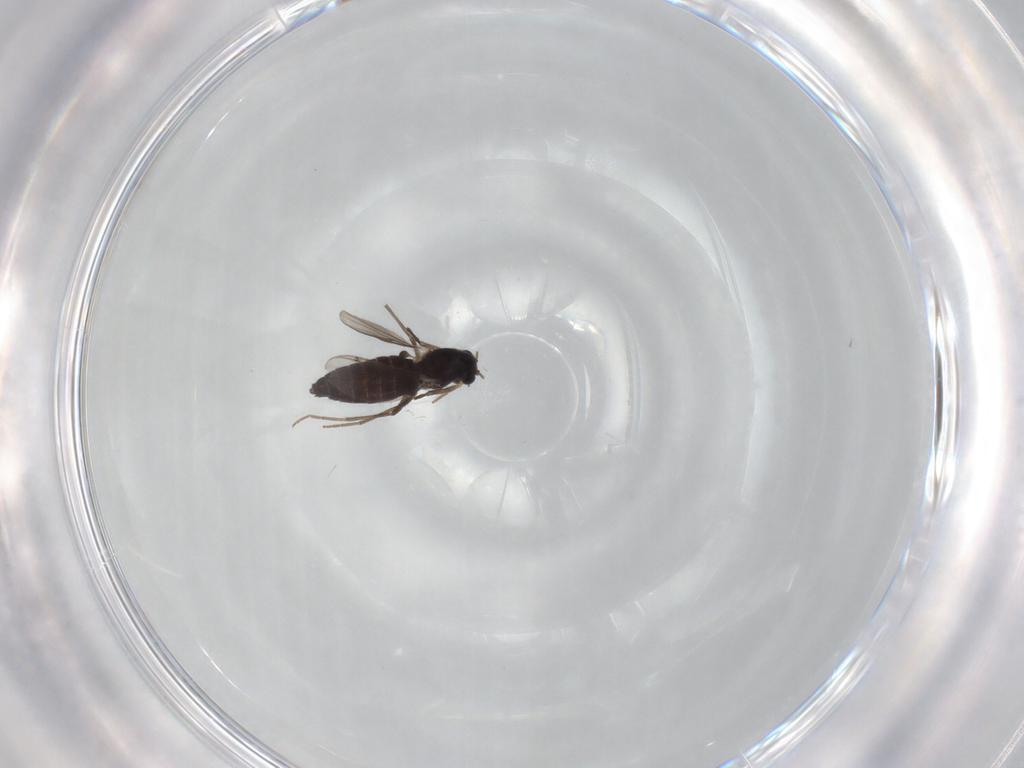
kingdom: Animalia
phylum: Arthropoda
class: Insecta
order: Diptera
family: Chironomidae
